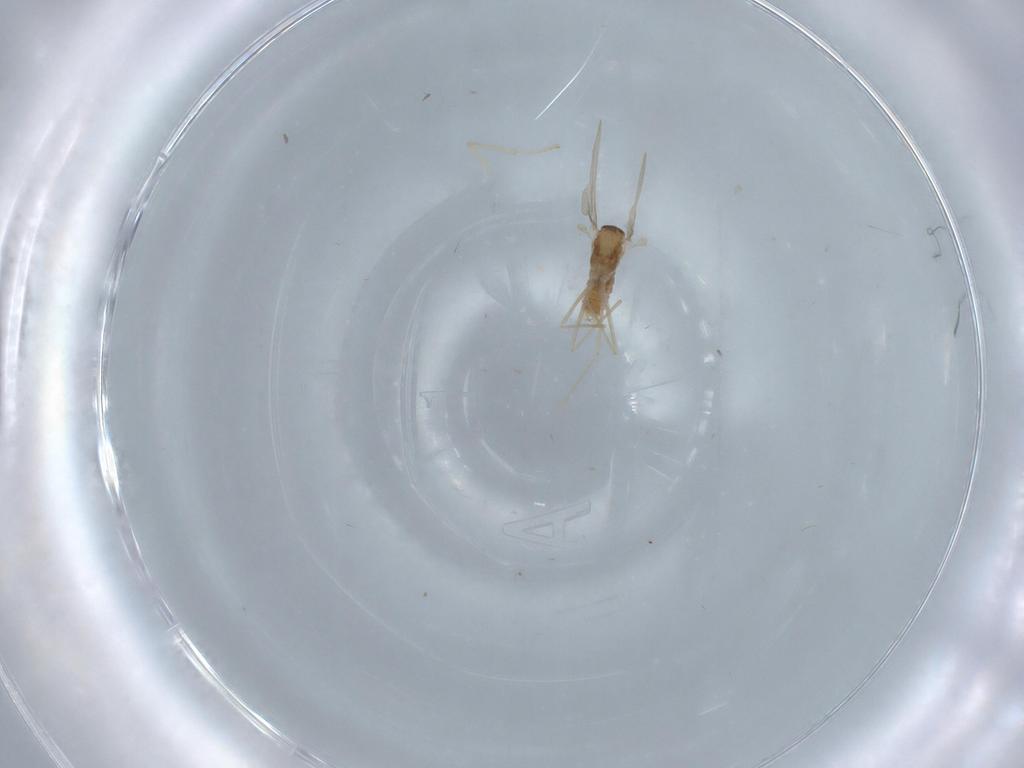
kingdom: Animalia
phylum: Arthropoda
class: Insecta
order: Diptera
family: Cecidomyiidae
